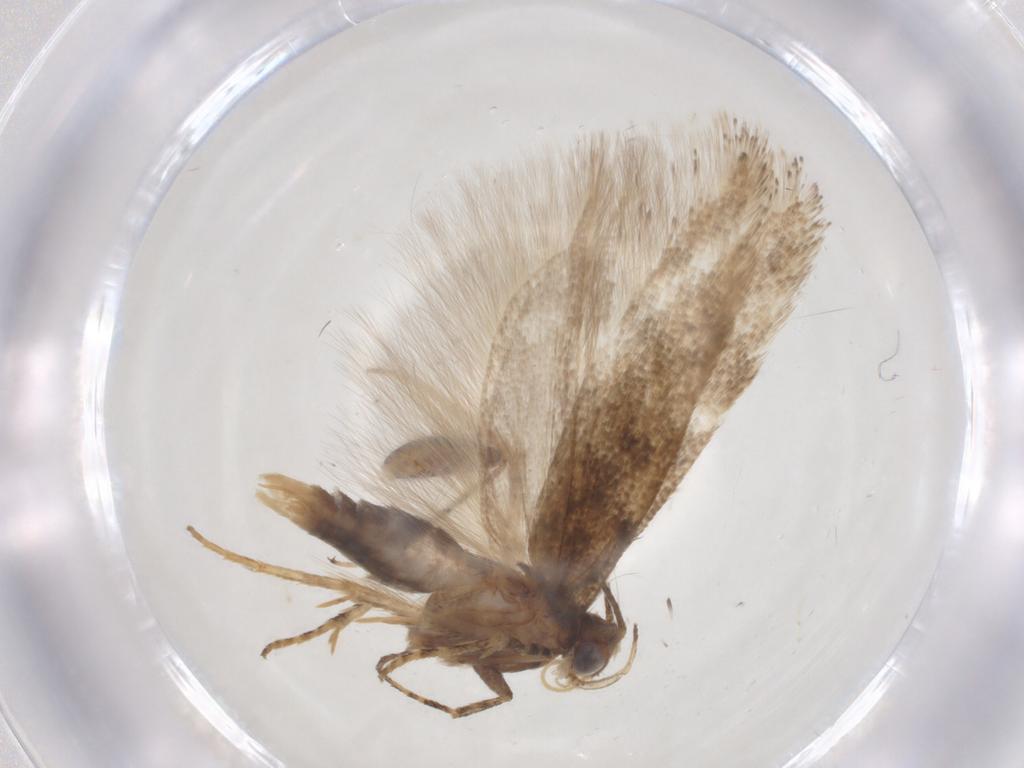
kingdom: Animalia
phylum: Arthropoda
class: Insecta
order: Lepidoptera
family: Gelechiidae
